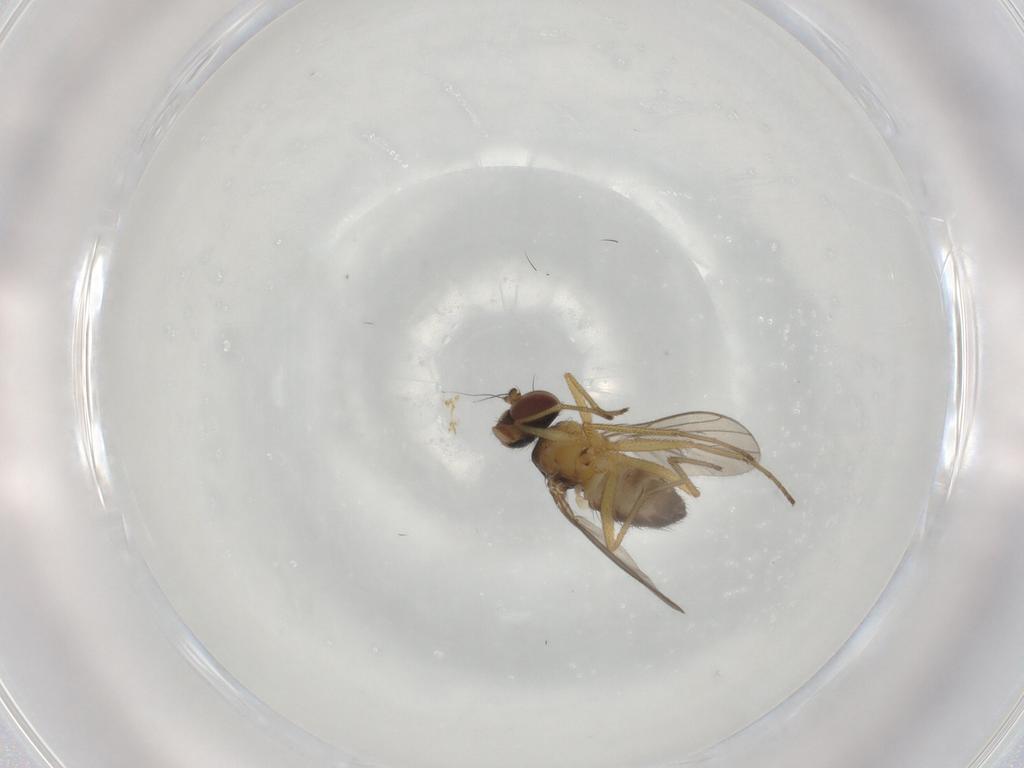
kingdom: Animalia
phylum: Arthropoda
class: Insecta
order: Diptera
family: Dolichopodidae
